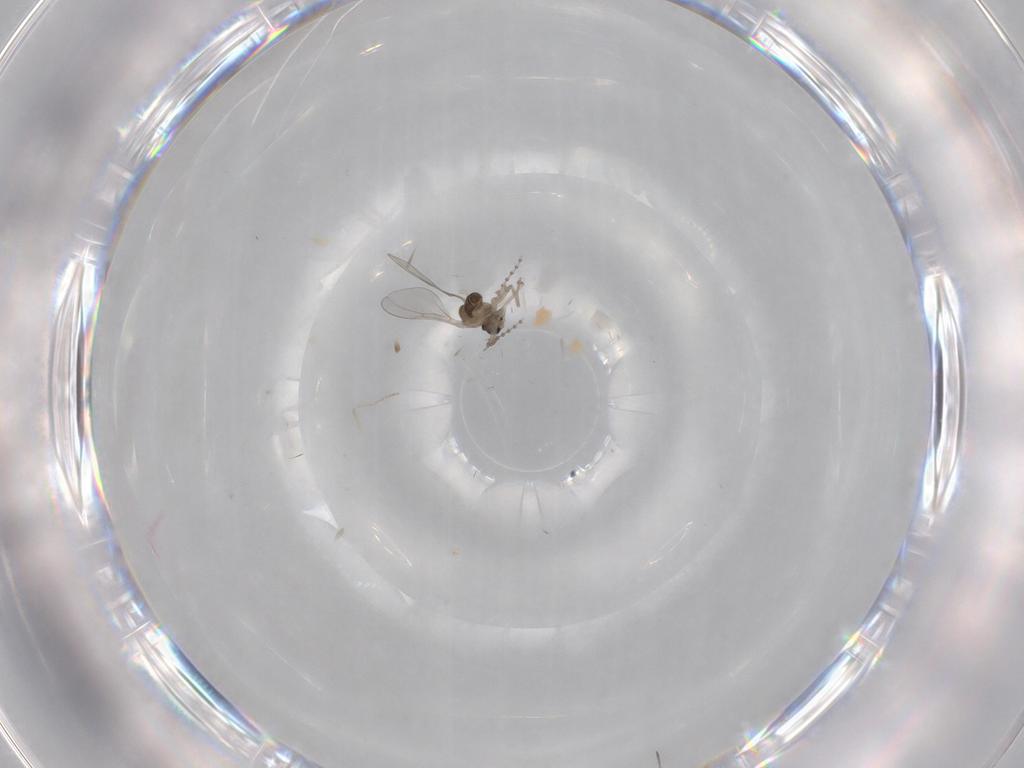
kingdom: Animalia
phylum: Arthropoda
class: Insecta
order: Diptera
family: Cecidomyiidae
